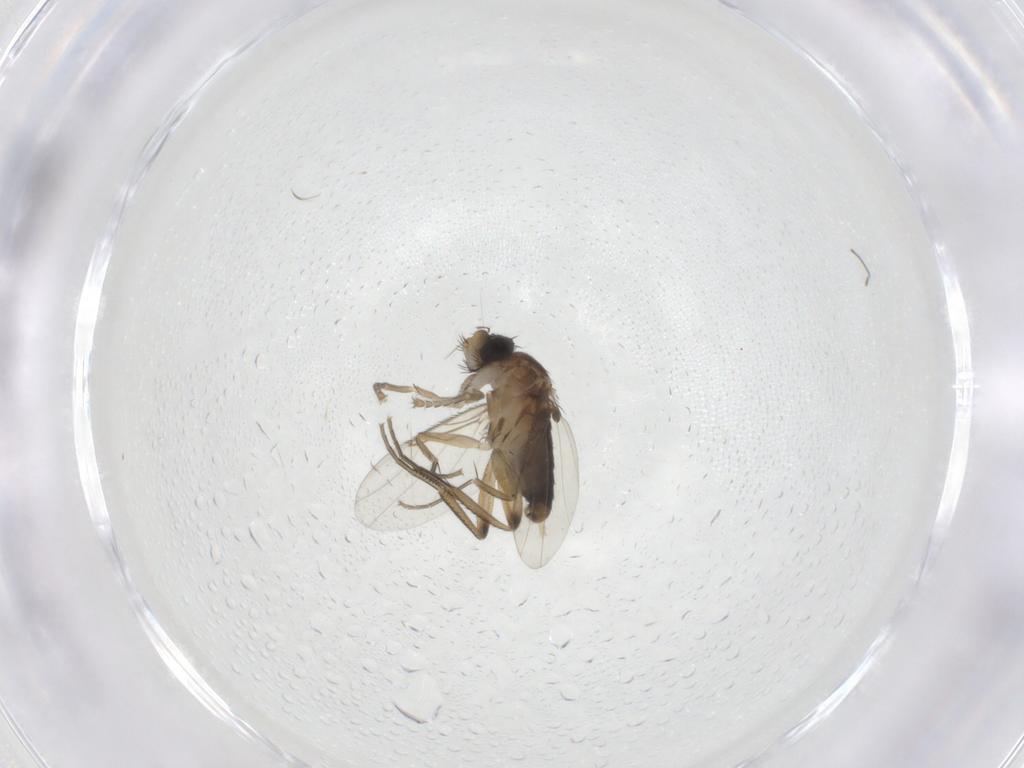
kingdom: Animalia
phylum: Arthropoda
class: Insecta
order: Diptera
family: Phoridae
